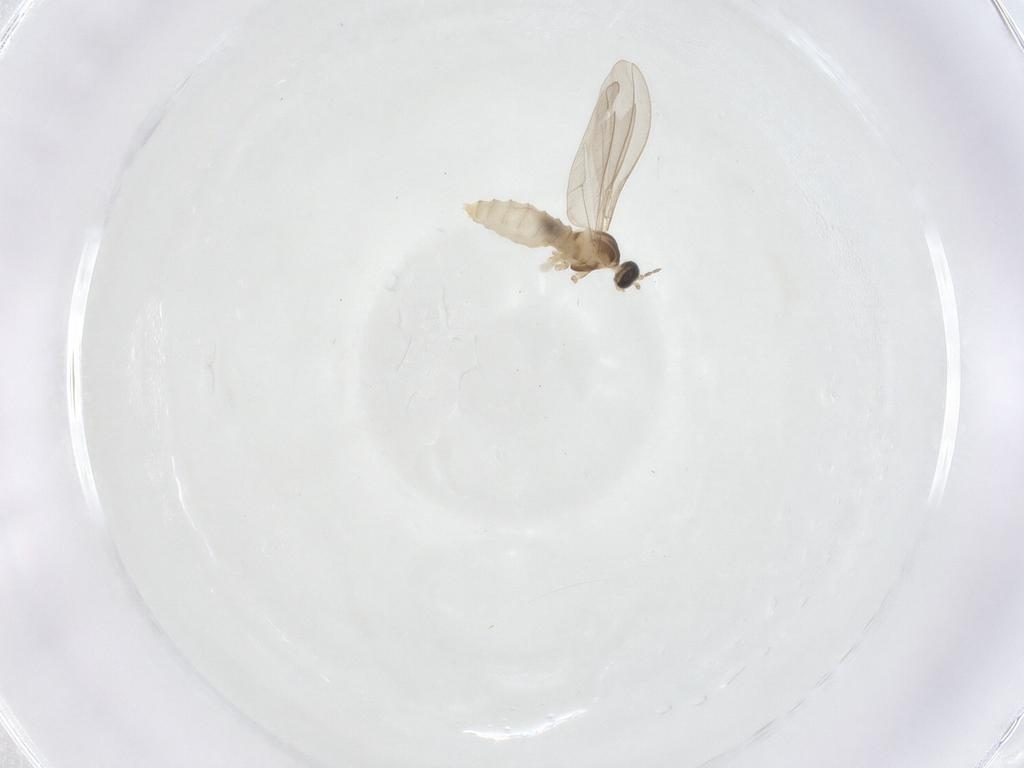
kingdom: Animalia
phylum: Arthropoda
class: Insecta
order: Diptera
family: Cecidomyiidae
